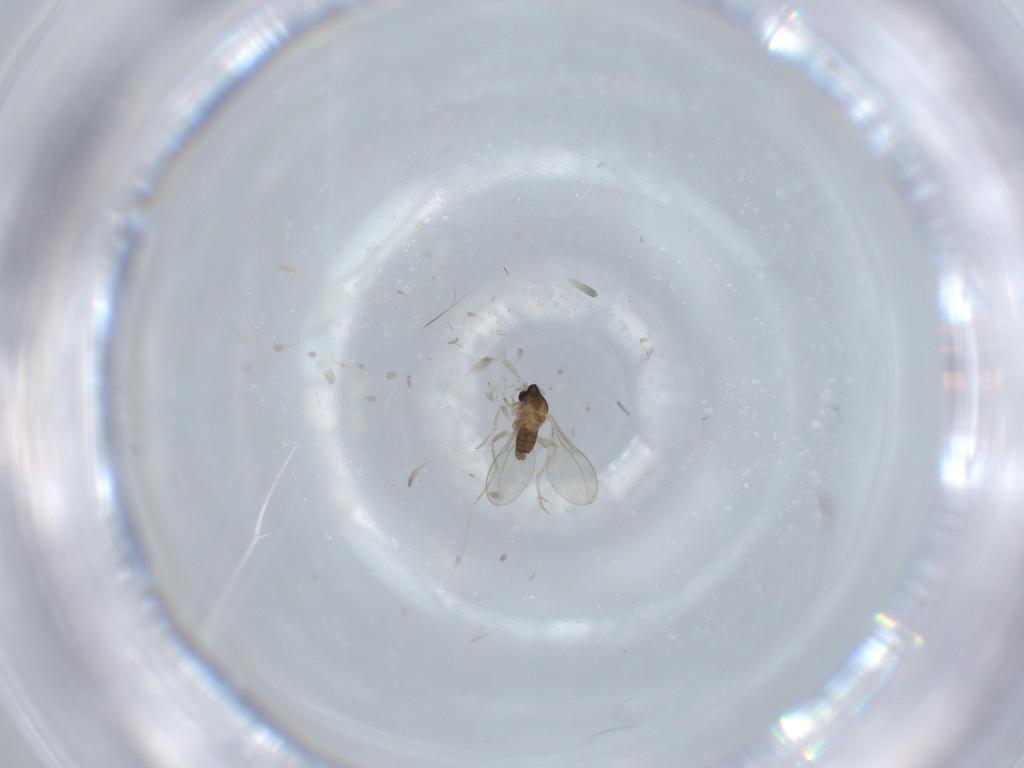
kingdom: Animalia
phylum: Arthropoda
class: Insecta
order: Diptera
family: Cecidomyiidae
